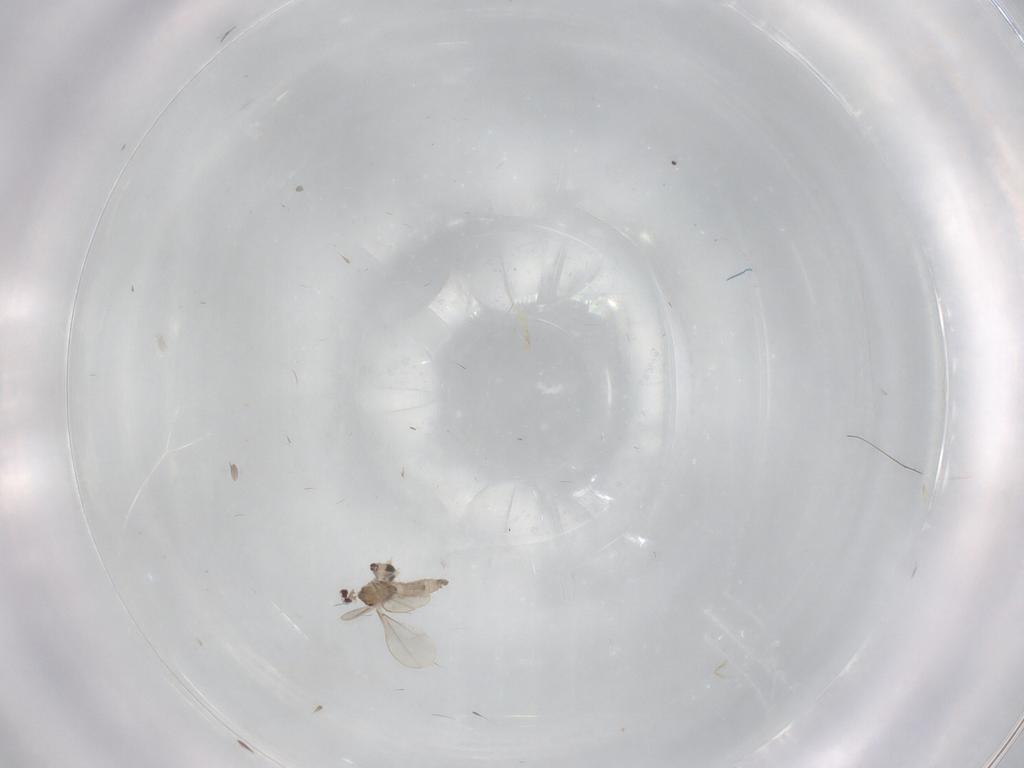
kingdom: Animalia
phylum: Arthropoda
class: Insecta
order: Diptera
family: Cecidomyiidae
